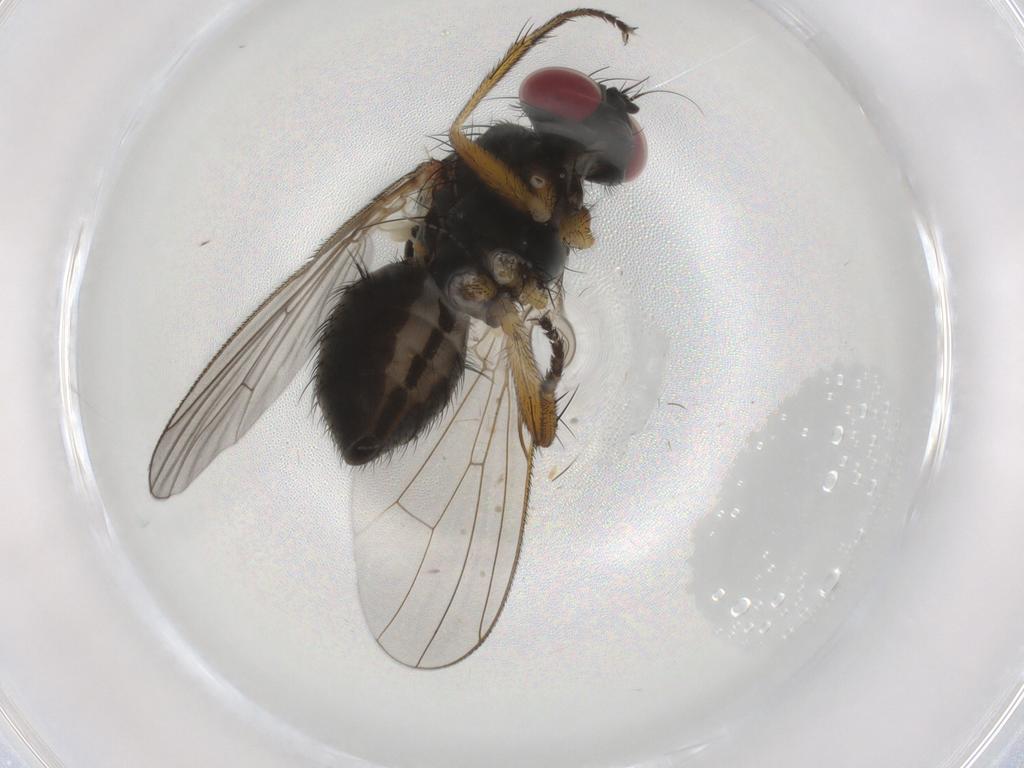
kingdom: Animalia
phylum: Arthropoda
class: Insecta
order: Diptera
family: Muscidae
